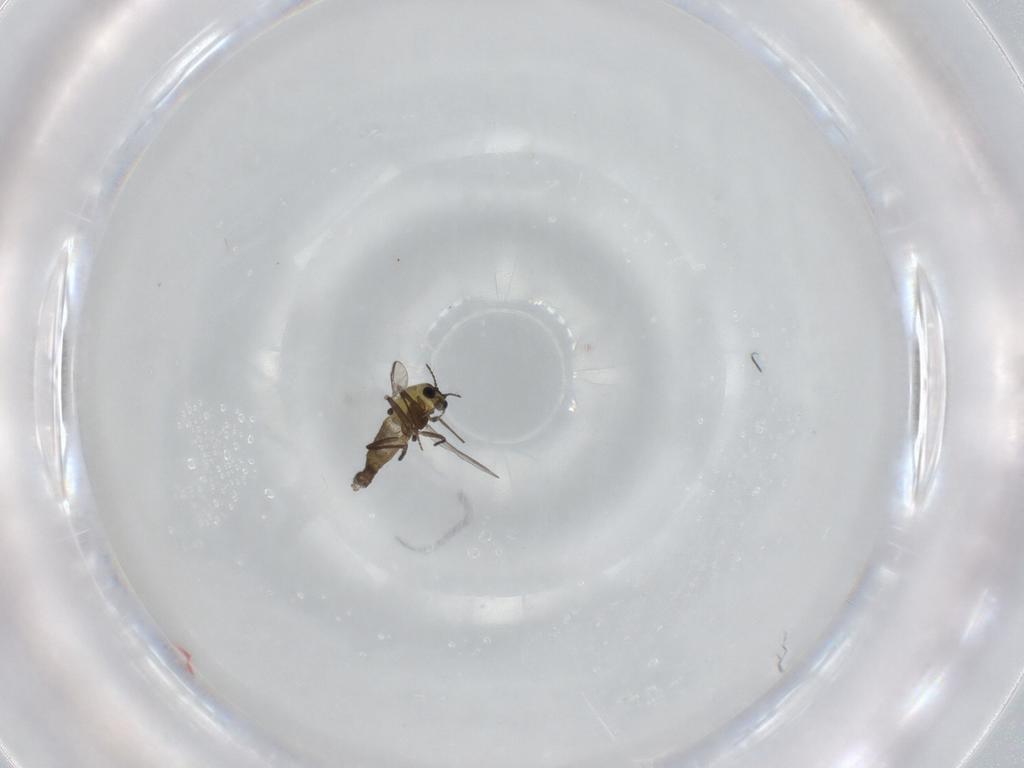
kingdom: Animalia
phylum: Arthropoda
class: Insecta
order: Diptera
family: Chironomidae
